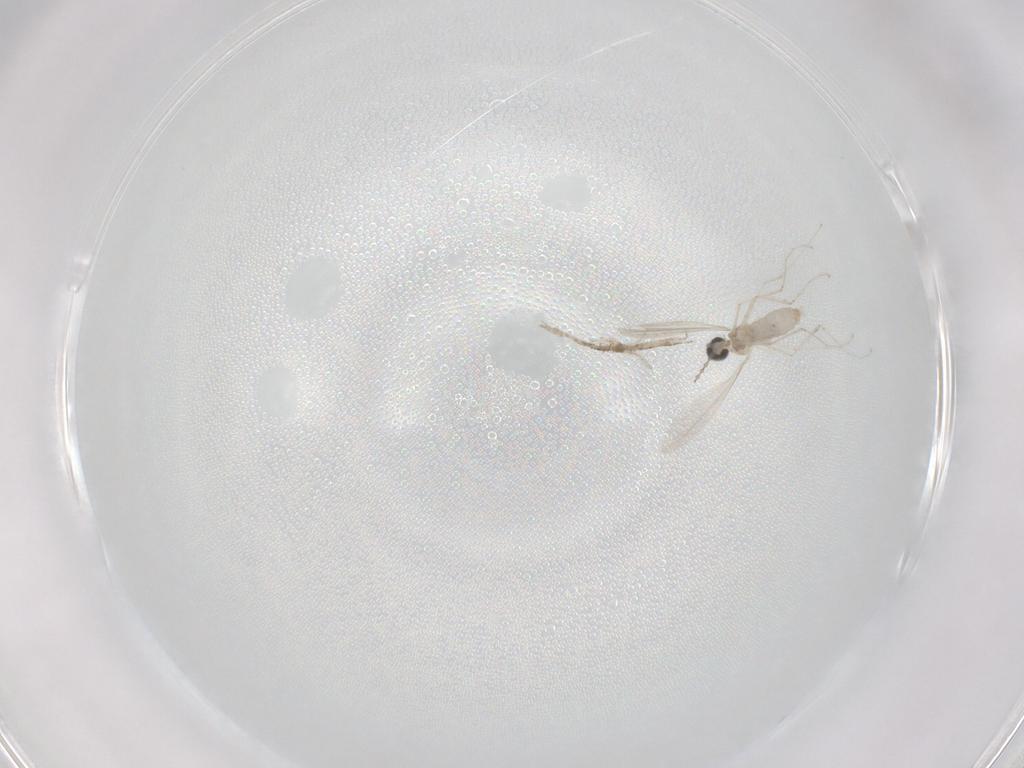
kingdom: Animalia
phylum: Arthropoda
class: Insecta
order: Diptera
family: Cecidomyiidae
